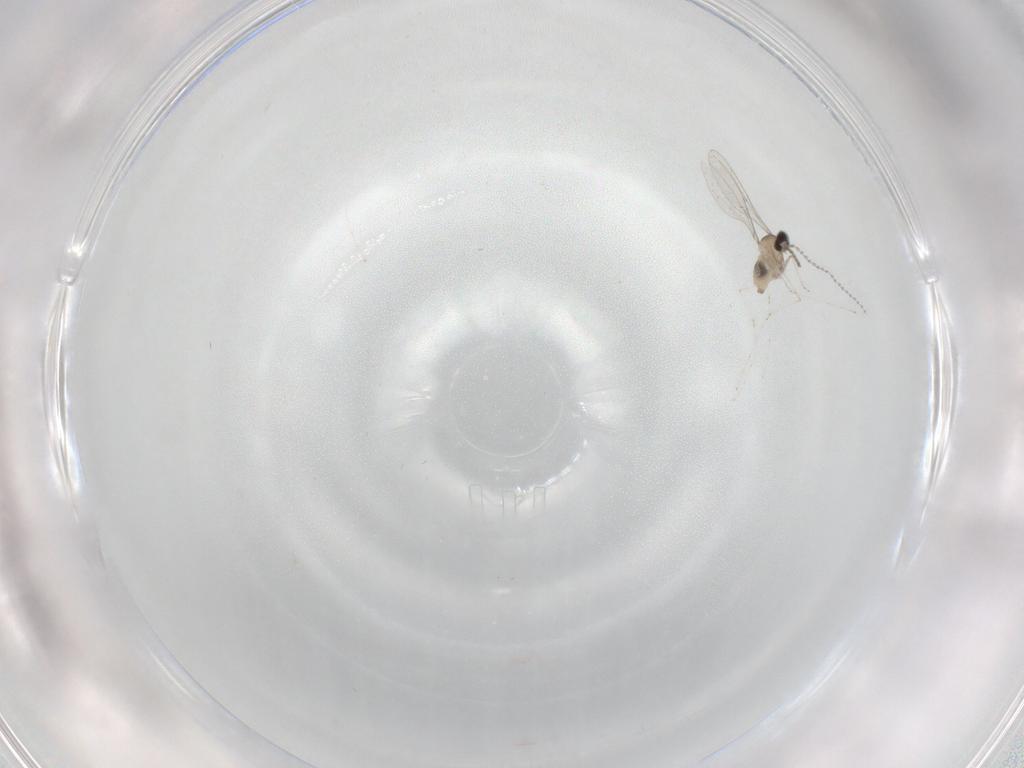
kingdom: Animalia
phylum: Arthropoda
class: Insecta
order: Diptera
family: Cecidomyiidae
